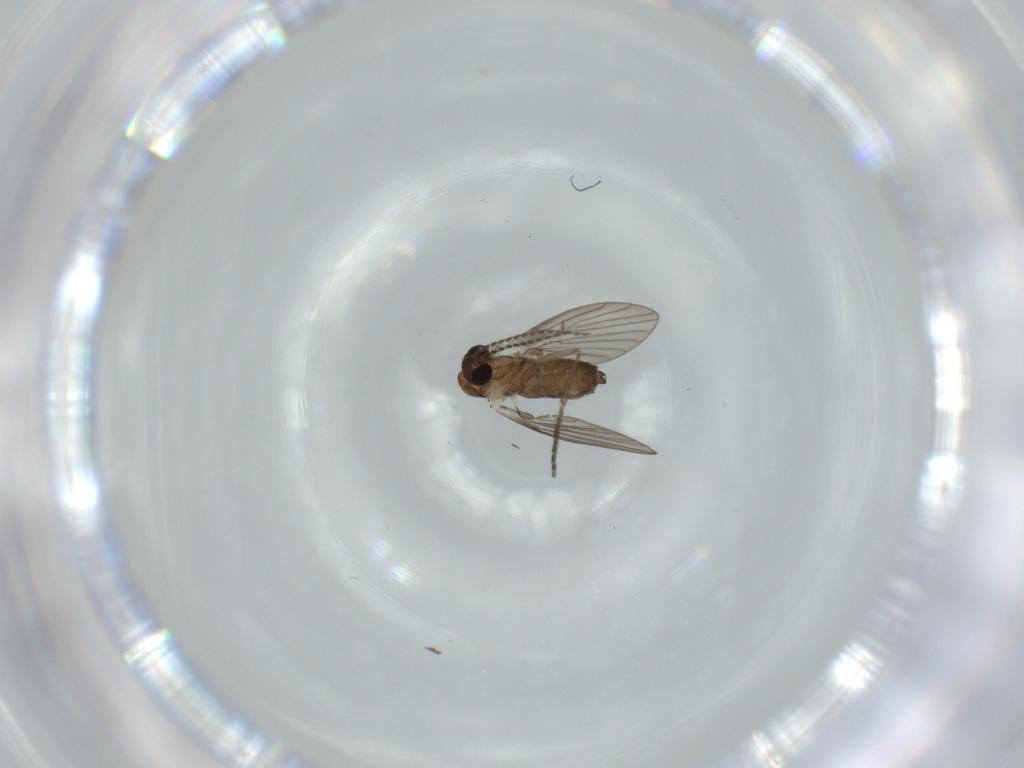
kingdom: Animalia
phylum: Arthropoda
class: Insecta
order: Diptera
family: Psychodidae
